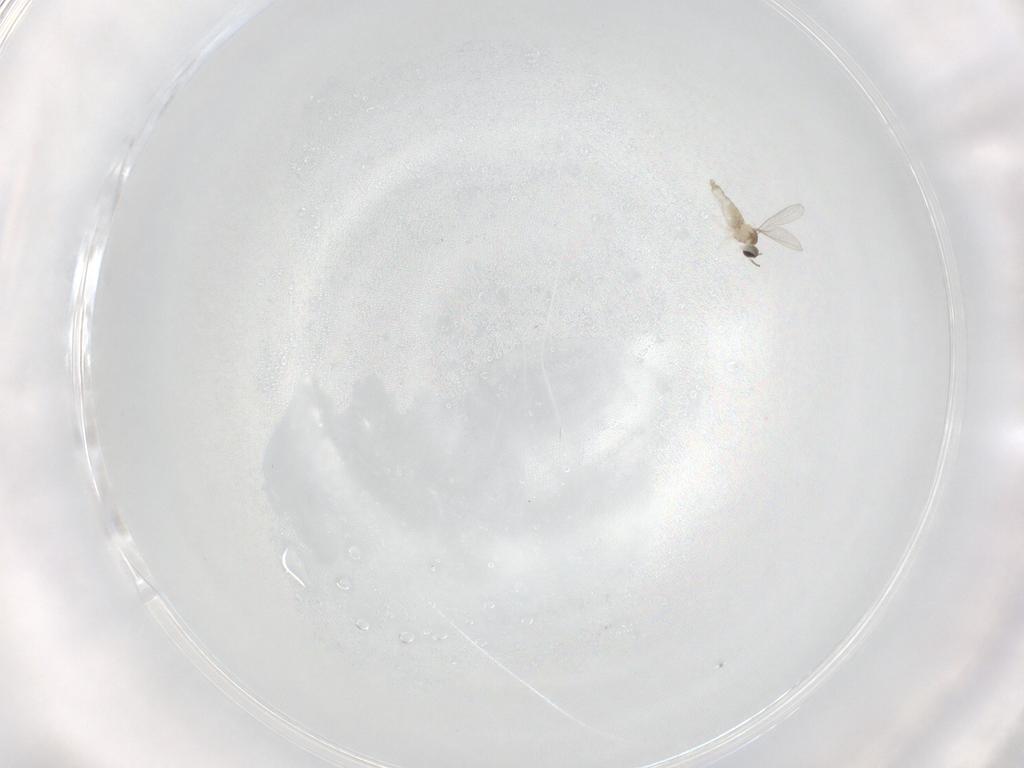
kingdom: Animalia
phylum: Arthropoda
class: Insecta
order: Diptera
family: Phoridae
